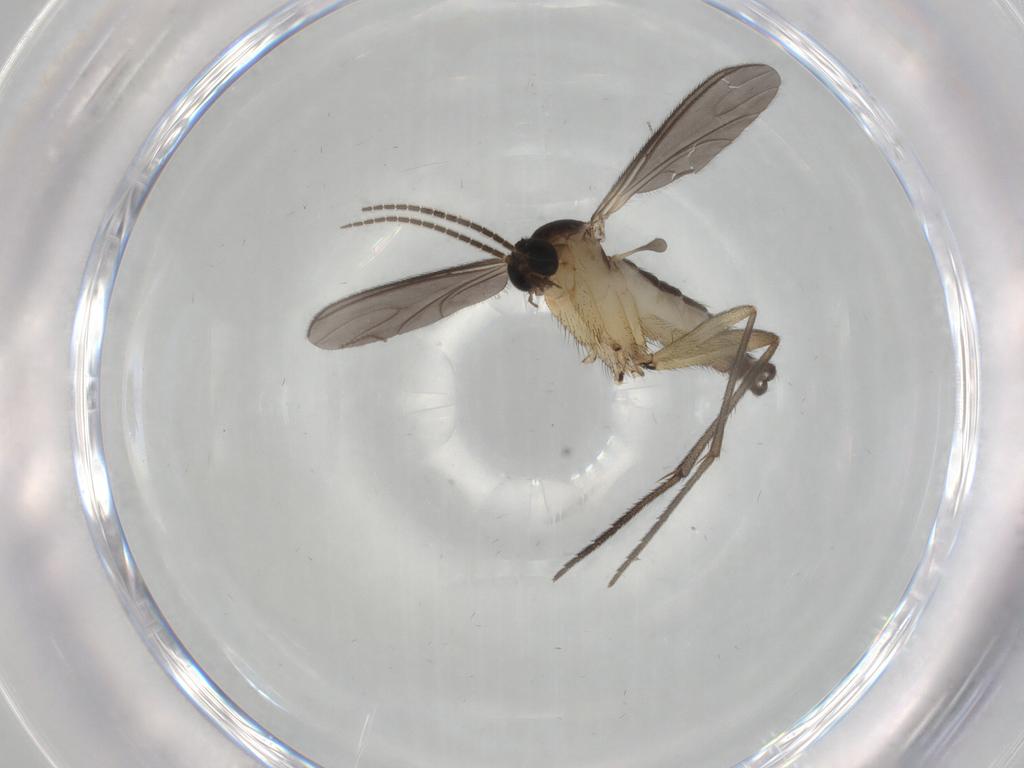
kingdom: Animalia
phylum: Arthropoda
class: Insecta
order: Diptera
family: Sciaridae
